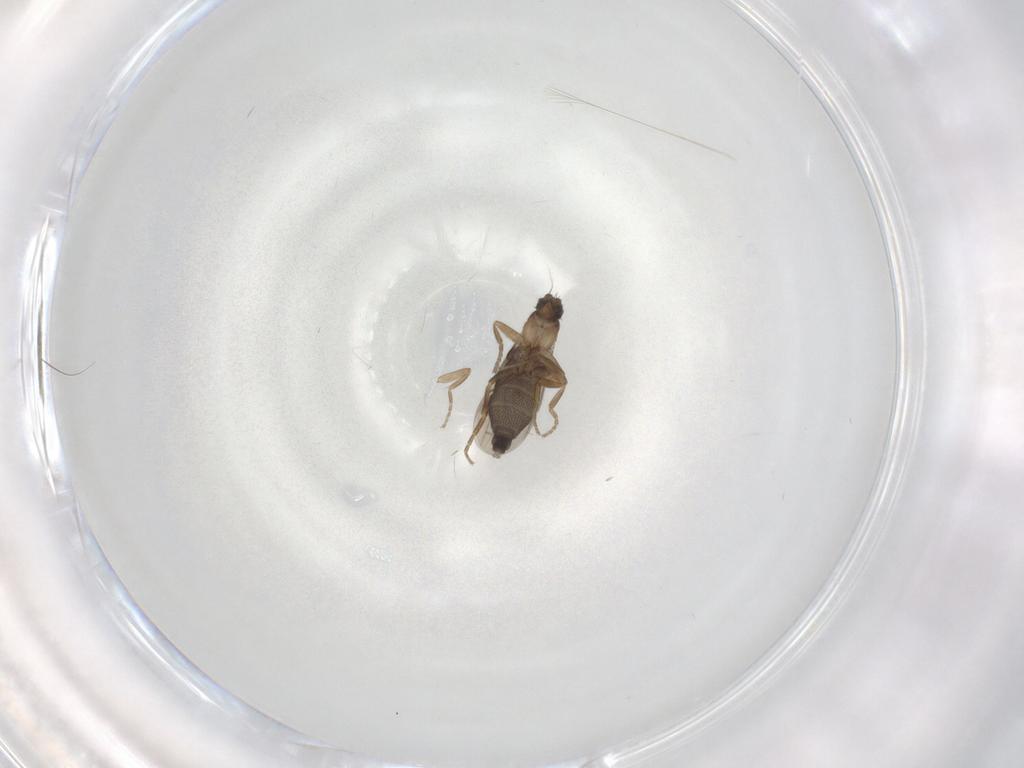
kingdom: Animalia
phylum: Arthropoda
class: Insecta
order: Diptera
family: Phoridae
